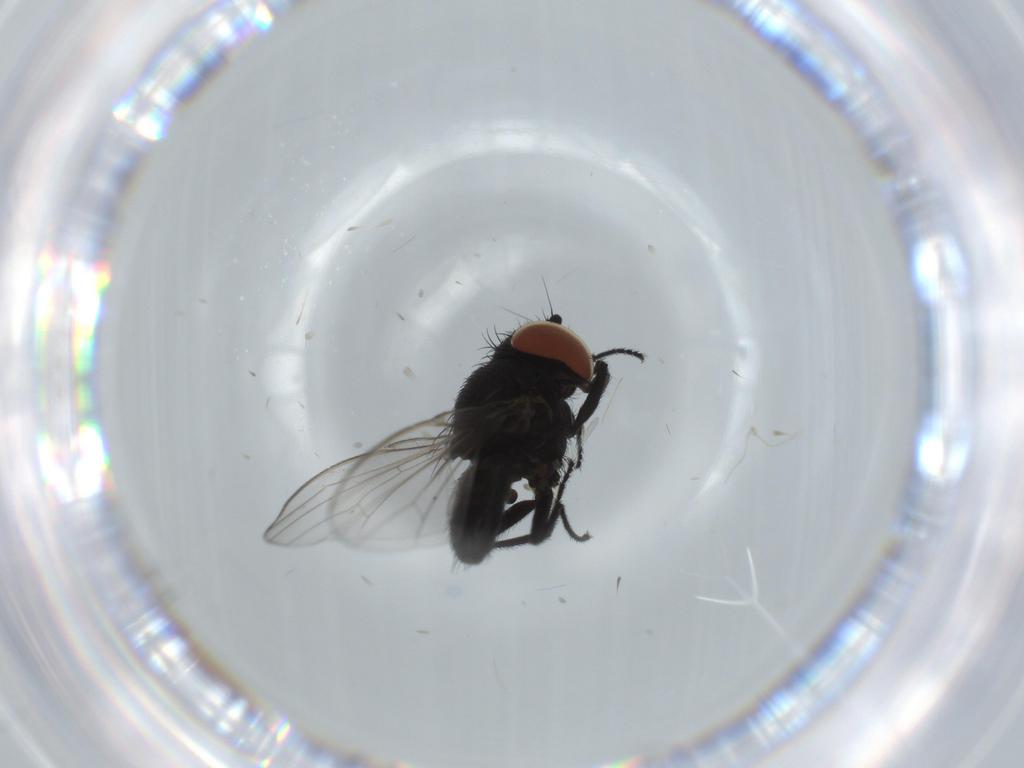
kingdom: Animalia
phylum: Arthropoda
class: Insecta
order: Diptera
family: Milichiidae
